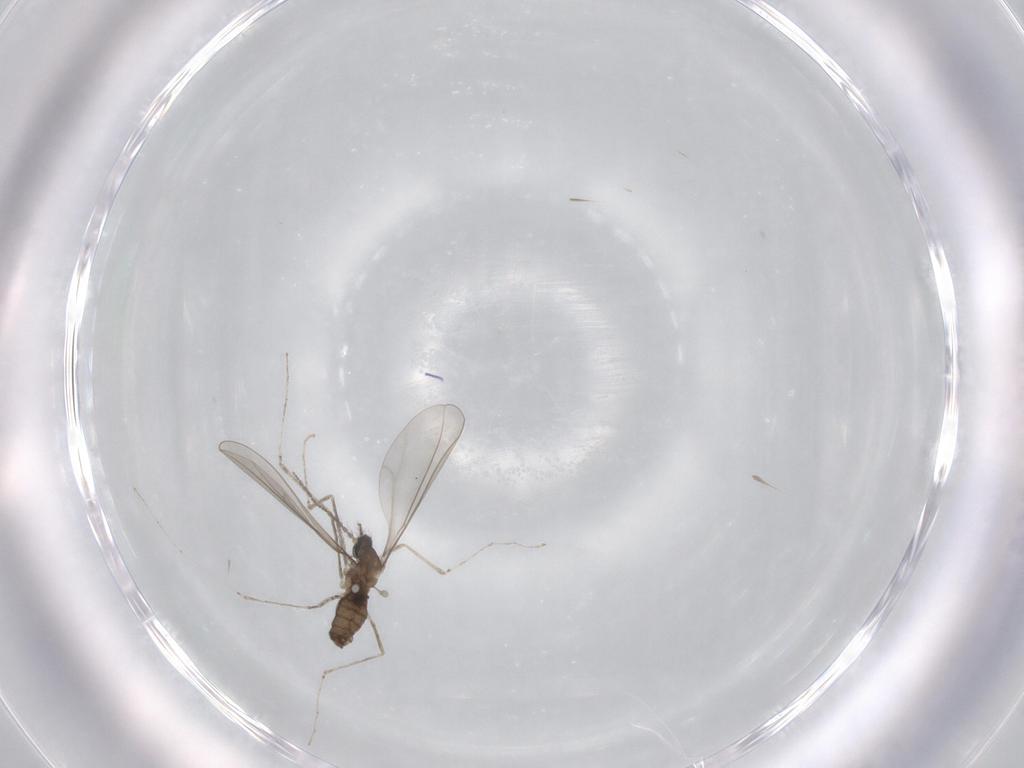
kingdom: Animalia
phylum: Arthropoda
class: Insecta
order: Diptera
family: Cecidomyiidae
